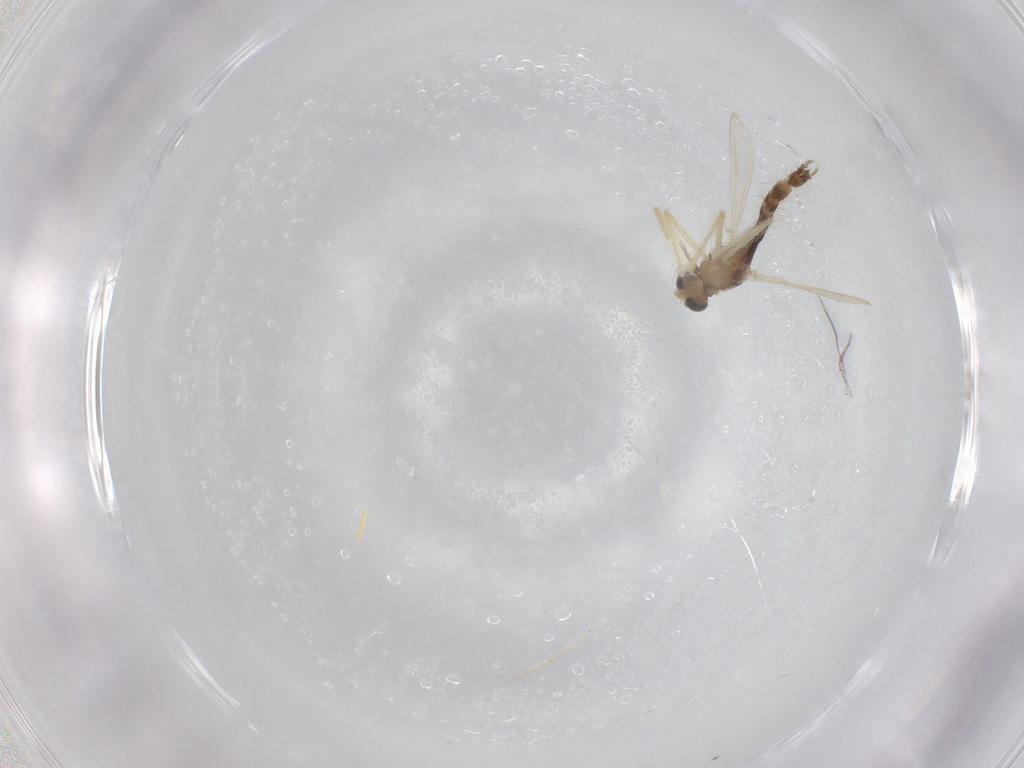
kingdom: Animalia
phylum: Arthropoda
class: Insecta
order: Diptera
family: Chironomidae
